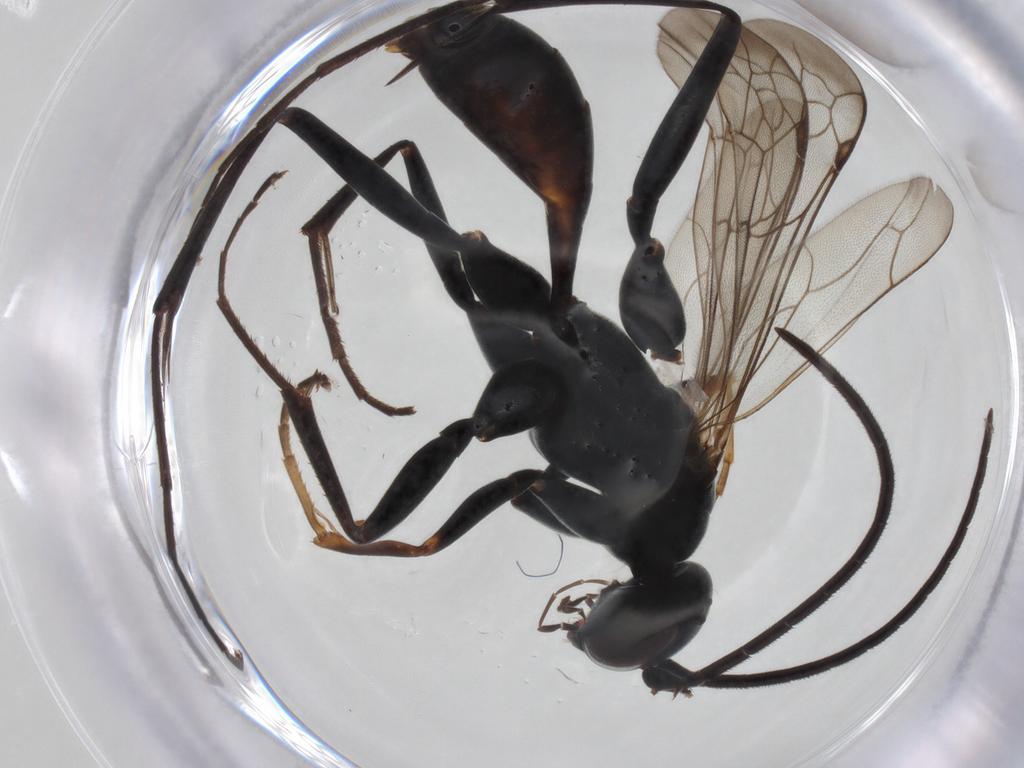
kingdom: Animalia
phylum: Arthropoda
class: Insecta
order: Hymenoptera
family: Pompilidae
